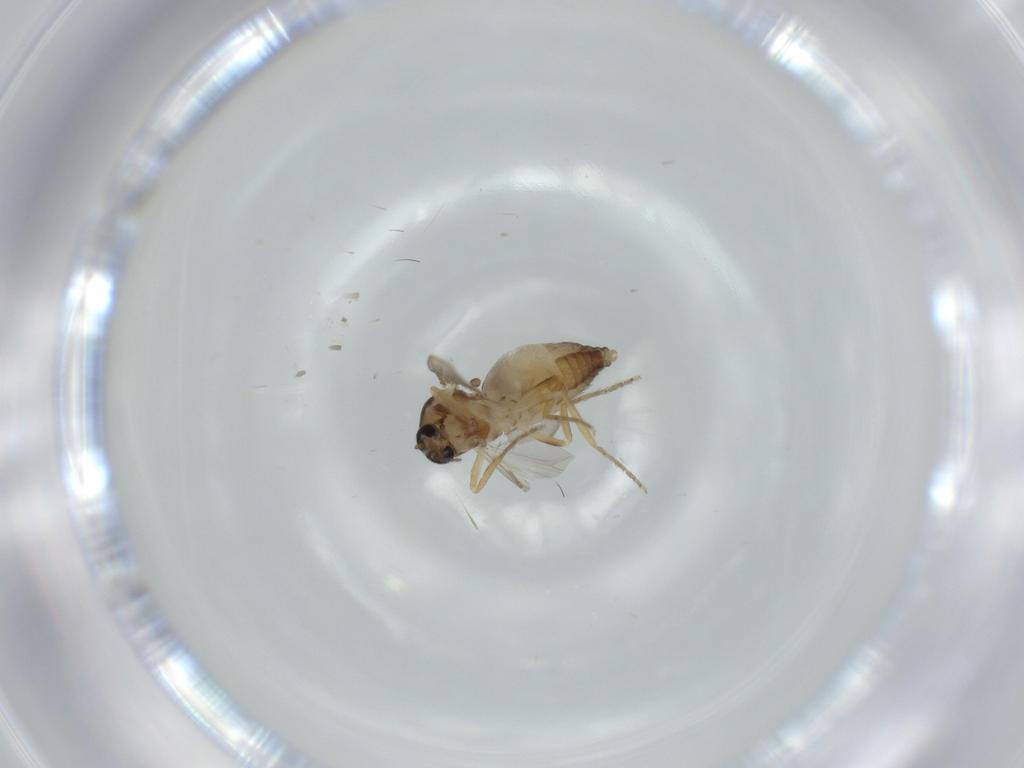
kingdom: Animalia
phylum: Arthropoda
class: Insecta
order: Diptera
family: Ceratopogonidae
